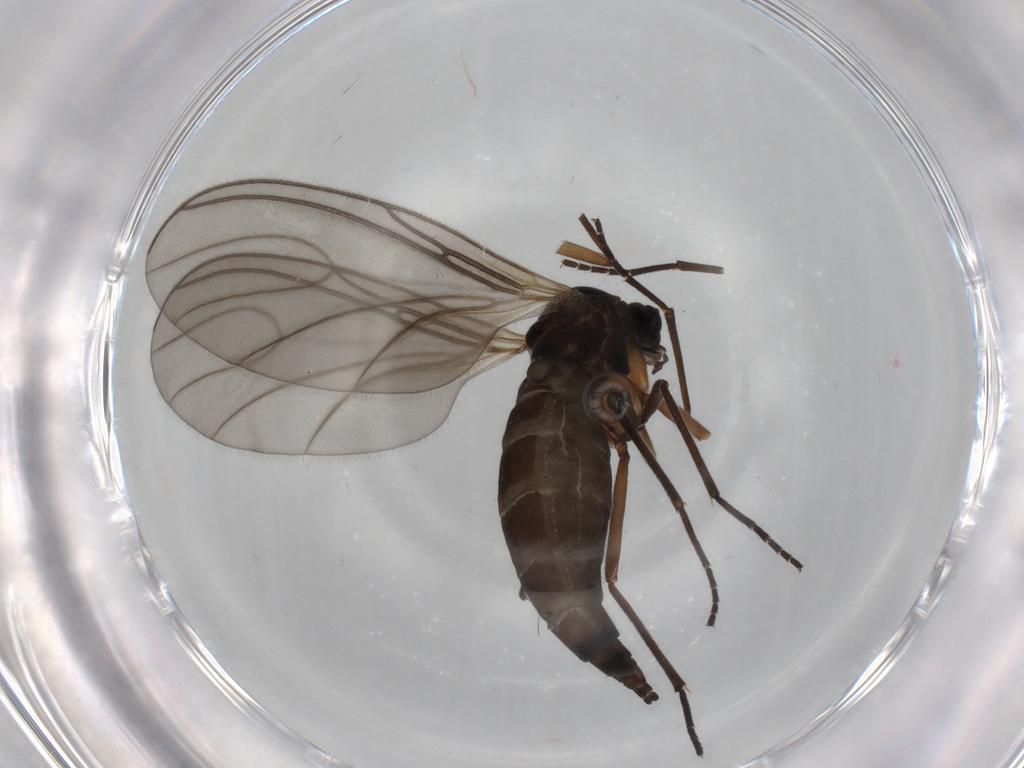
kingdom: Animalia
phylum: Arthropoda
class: Insecta
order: Diptera
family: Sciaridae
